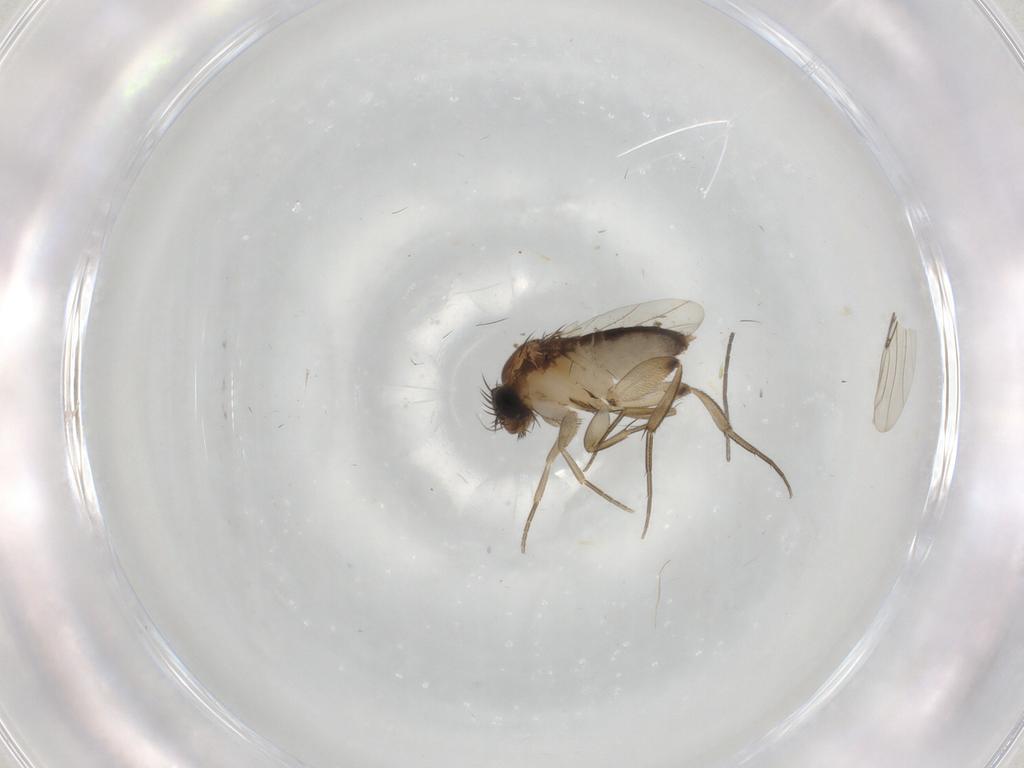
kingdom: Animalia
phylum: Arthropoda
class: Insecta
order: Diptera
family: Phoridae
